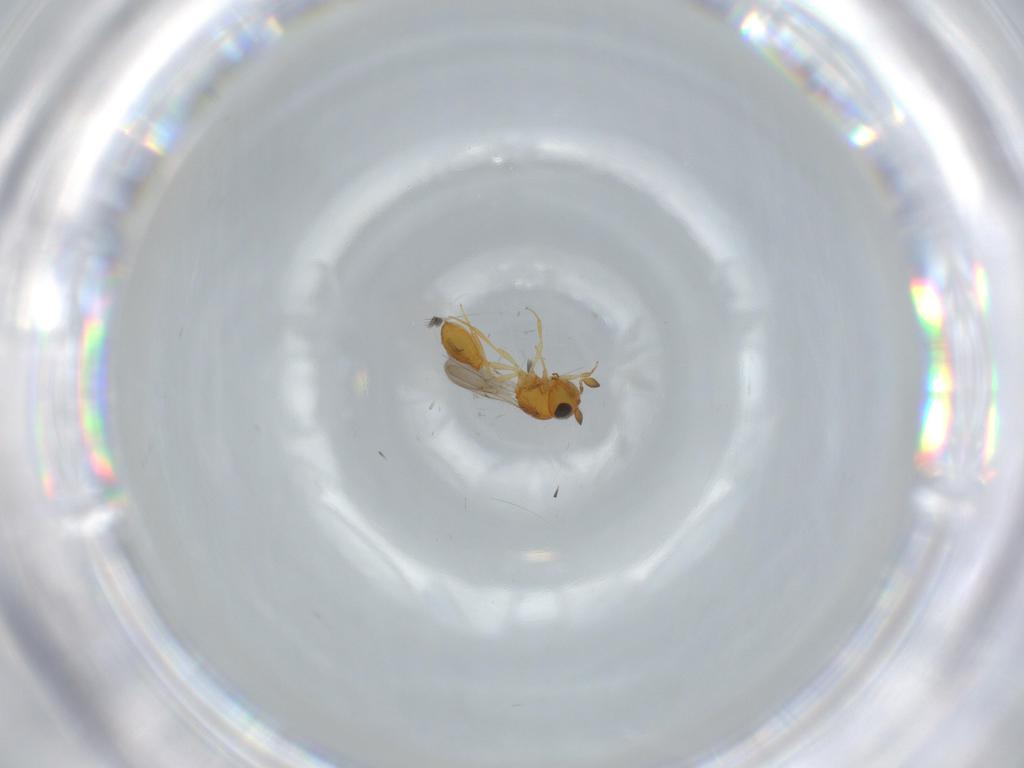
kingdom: Animalia
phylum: Arthropoda
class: Insecta
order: Hymenoptera
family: Scelionidae
